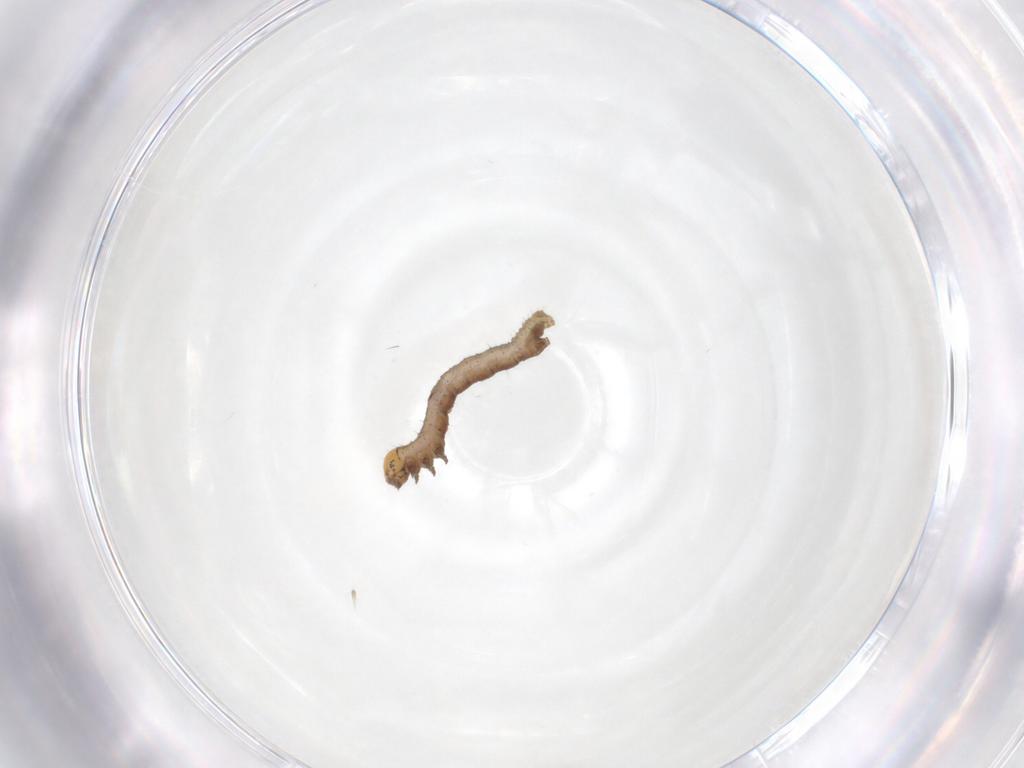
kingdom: Animalia
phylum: Arthropoda
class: Insecta
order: Lepidoptera
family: Geometridae
